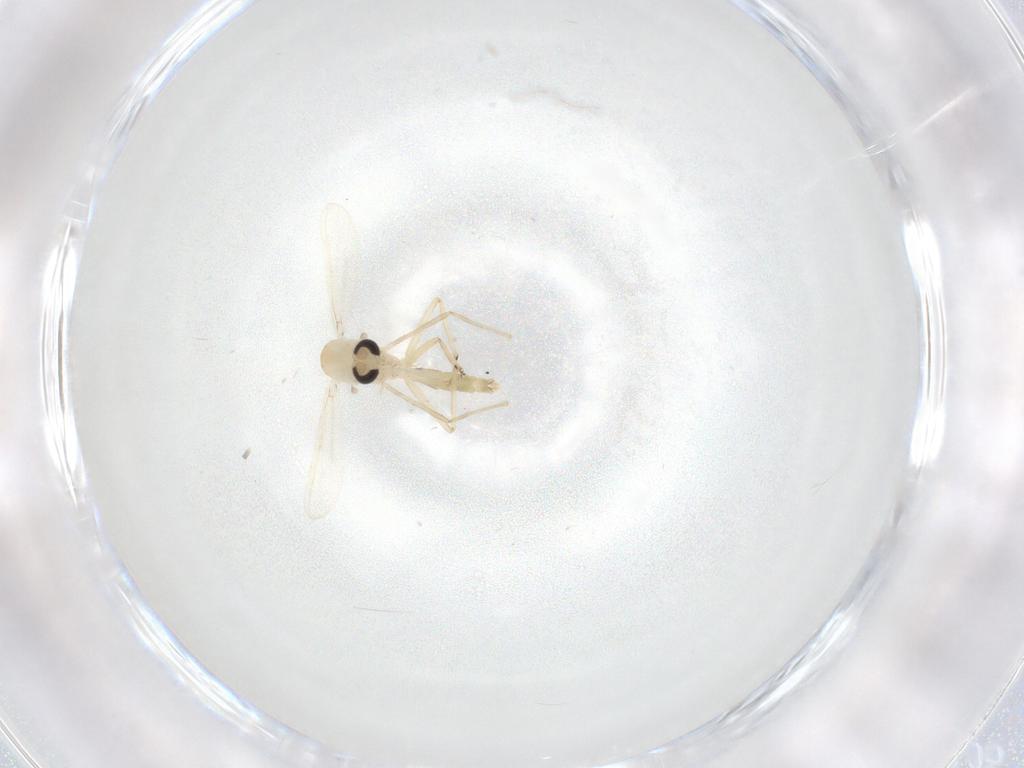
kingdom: Animalia
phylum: Arthropoda
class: Insecta
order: Diptera
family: Chironomidae
